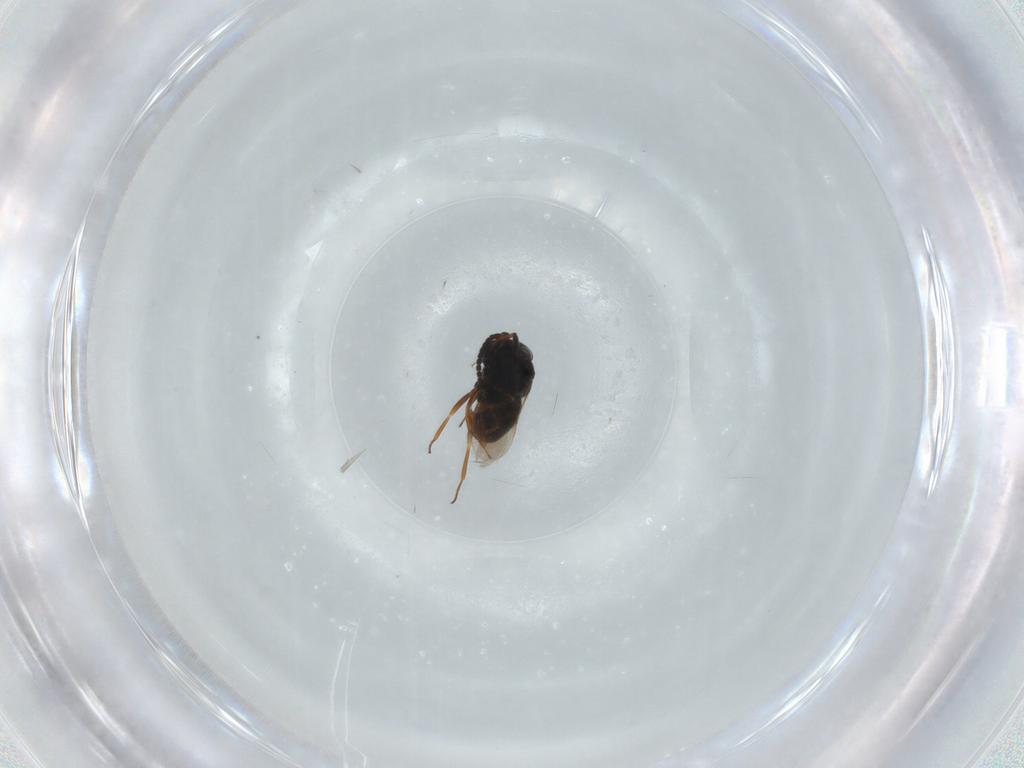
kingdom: Animalia
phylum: Arthropoda
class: Insecta
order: Hymenoptera
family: Scelionidae
